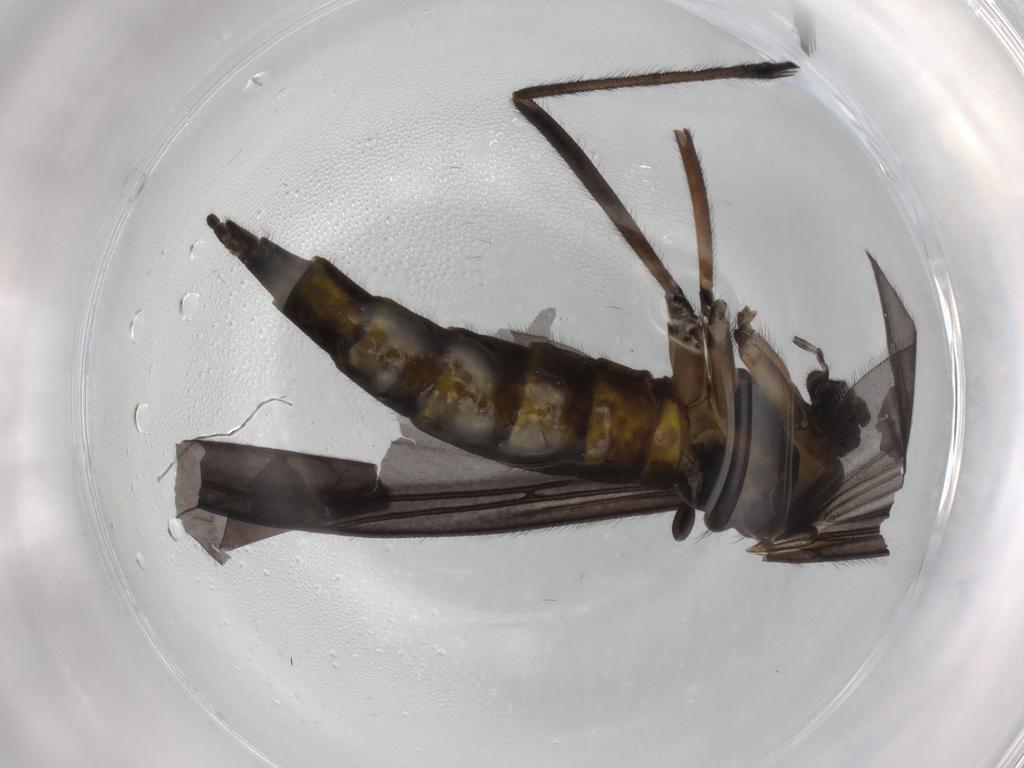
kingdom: Animalia
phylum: Arthropoda
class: Insecta
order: Diptera
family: Sciaridae
